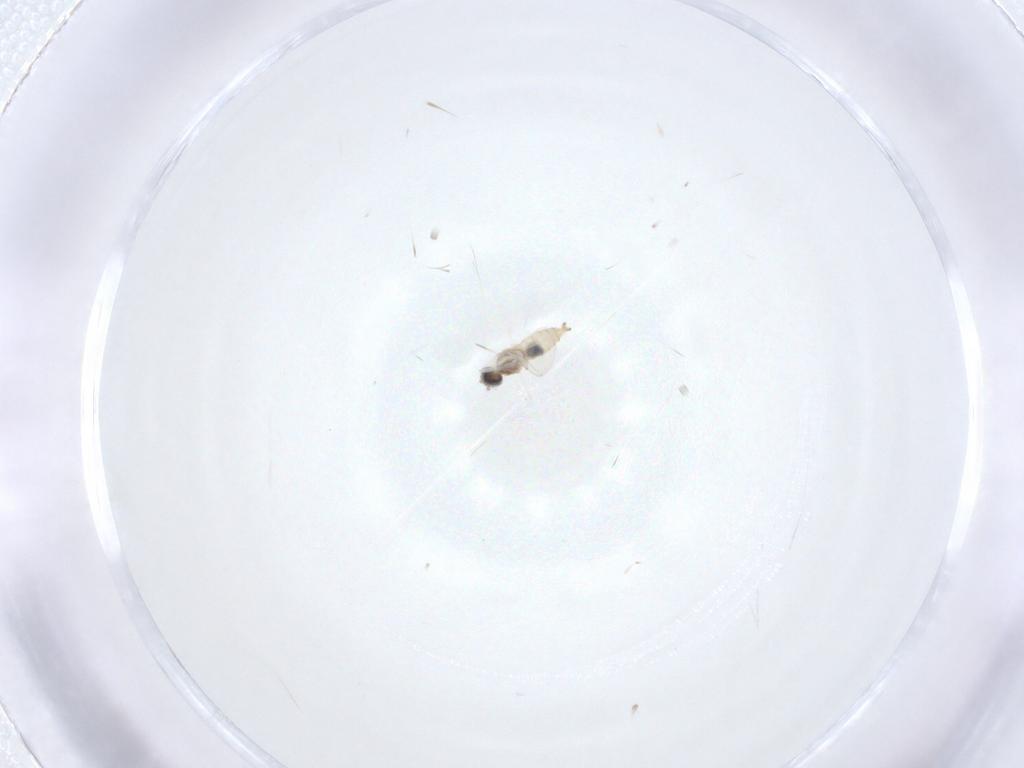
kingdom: Animalia
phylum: Arthropoda
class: Insecta
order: Diptera
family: Cecidomyiidae
